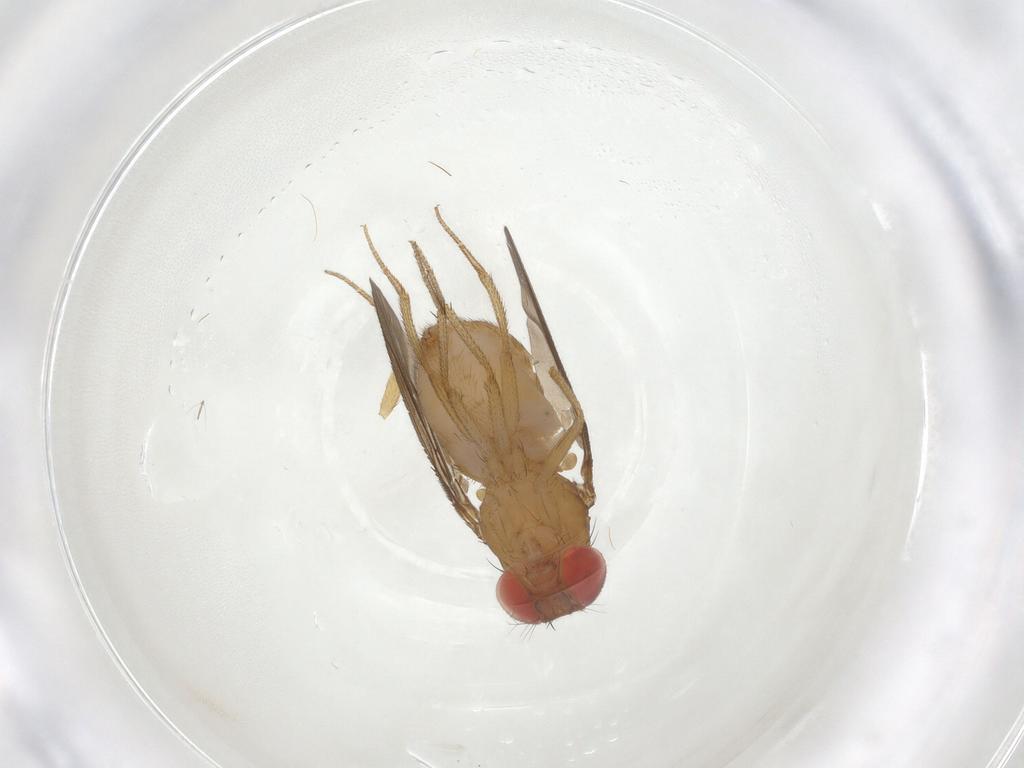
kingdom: Animalia
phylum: Arthropoda
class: Insecta
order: Diptera
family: Drosophilidae
